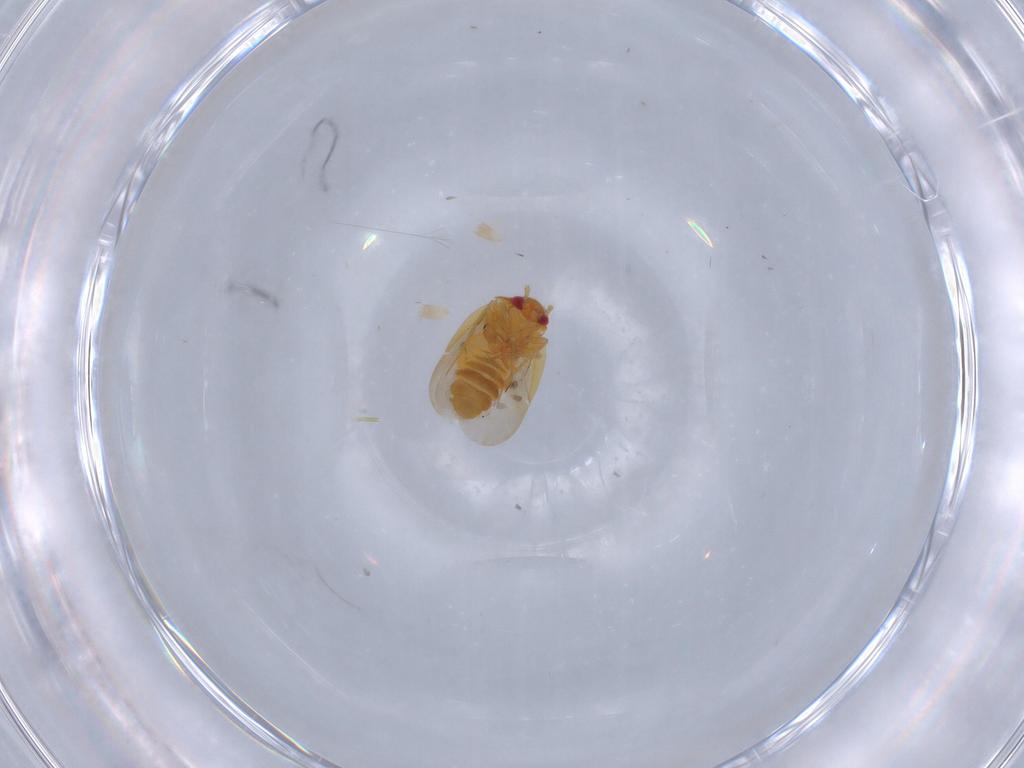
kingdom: Animalia
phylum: Arthropoda
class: Insecta
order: Hemiptera
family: Ceratocombidae
